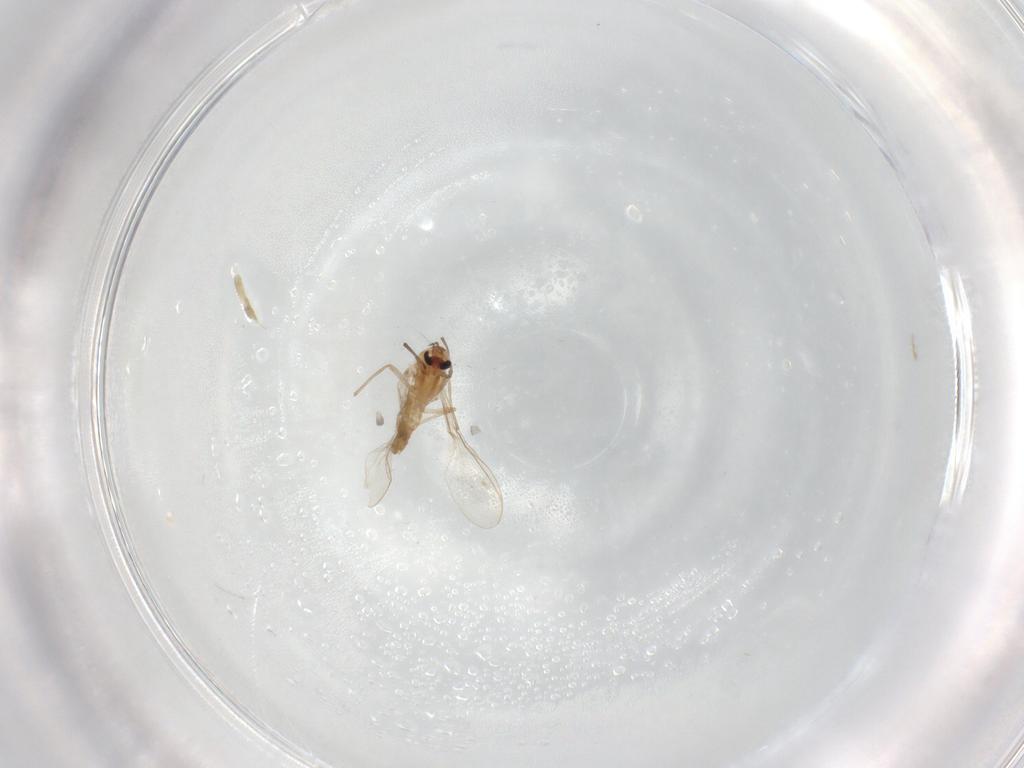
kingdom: Animalia
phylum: Arthropoda
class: Insecta
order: Diptera
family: Chironomidae
